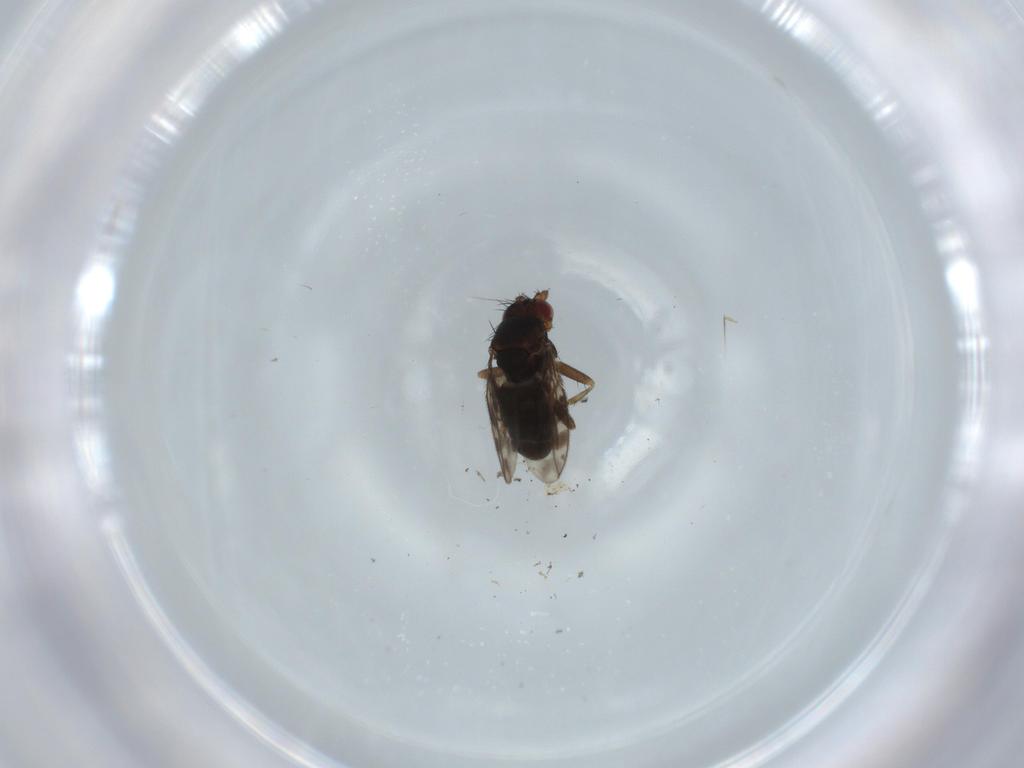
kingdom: Animalia
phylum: Arthropoda
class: Insecta
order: Diptera
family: Sphaeroceridae
